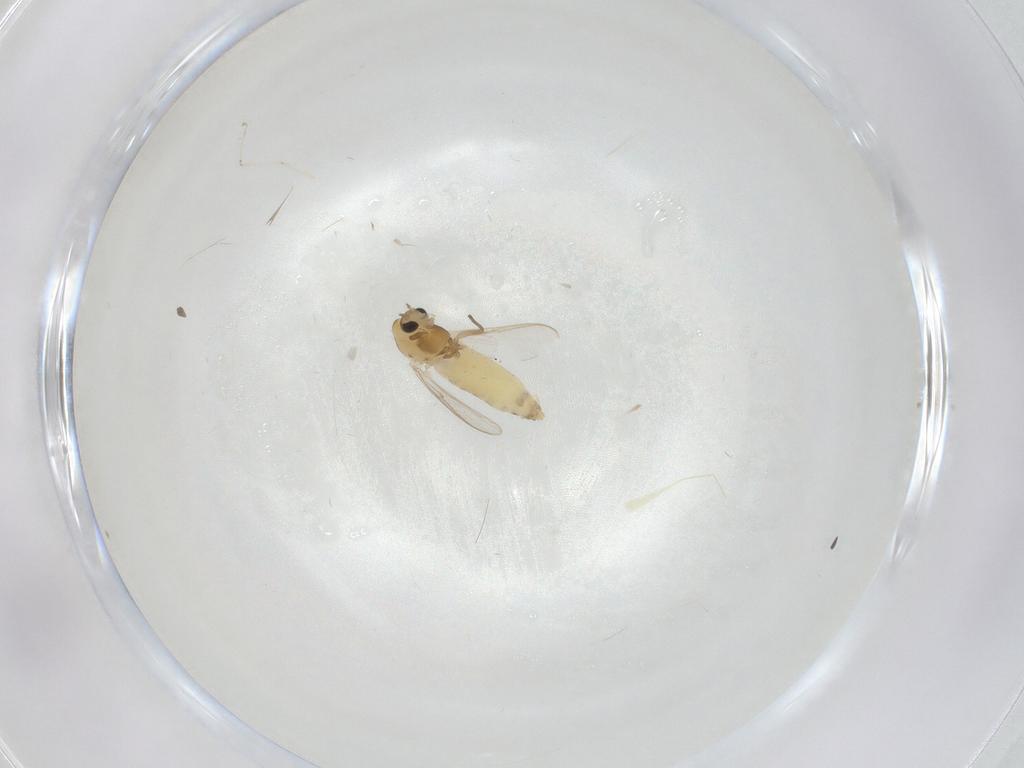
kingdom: Animalia
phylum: Arthropoda
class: Insecta
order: Diptera
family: Chironomidae
